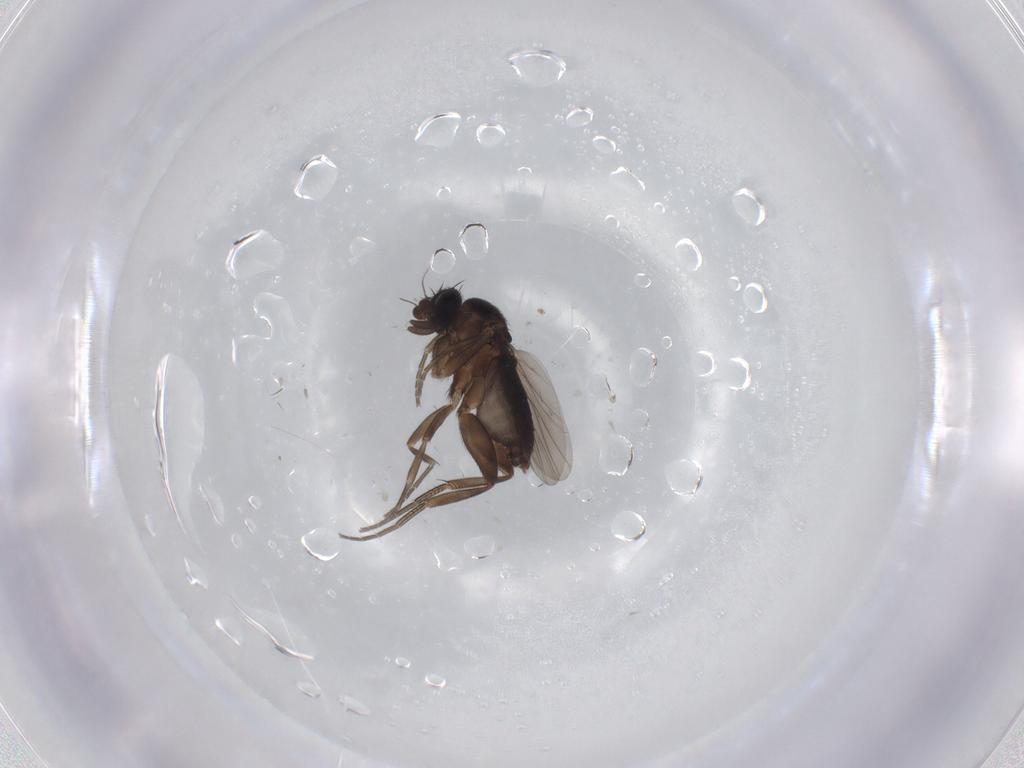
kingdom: Animalia
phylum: Arthropoda
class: Insecta
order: Diptera
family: Phoridae
